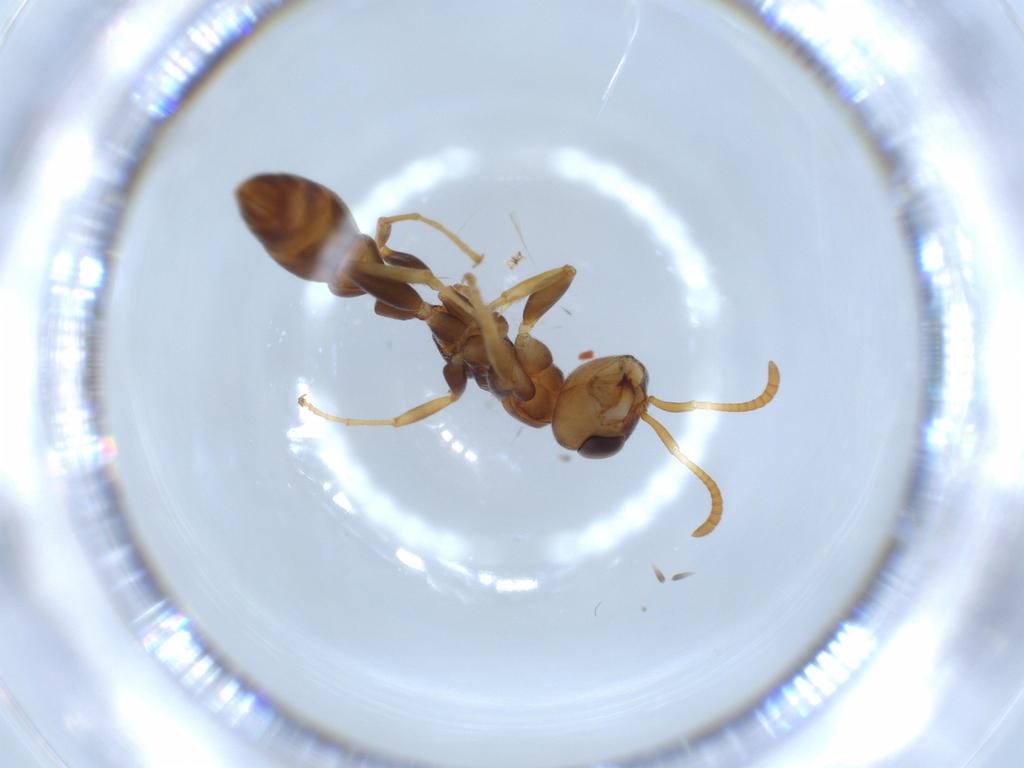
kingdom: Animalia
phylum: Arthropoda
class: Insecta
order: Hymenoptera
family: Formicidae
